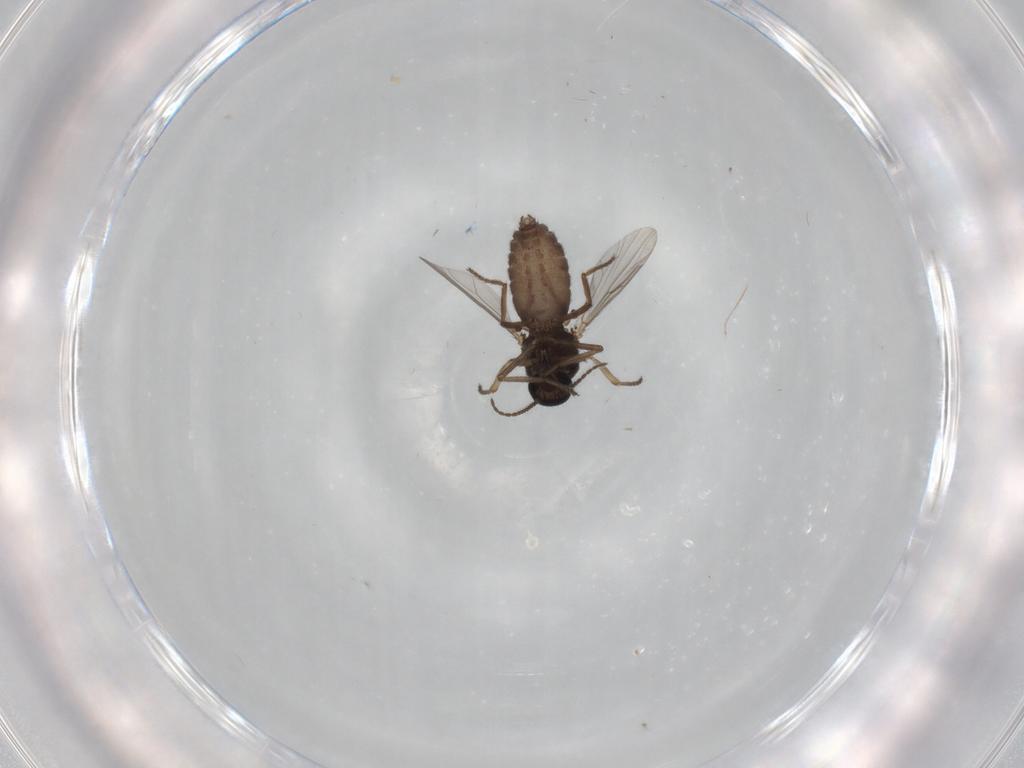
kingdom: Animalia
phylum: Arthropoda
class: Insecta
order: Diptera
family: Ceratopogonidae
